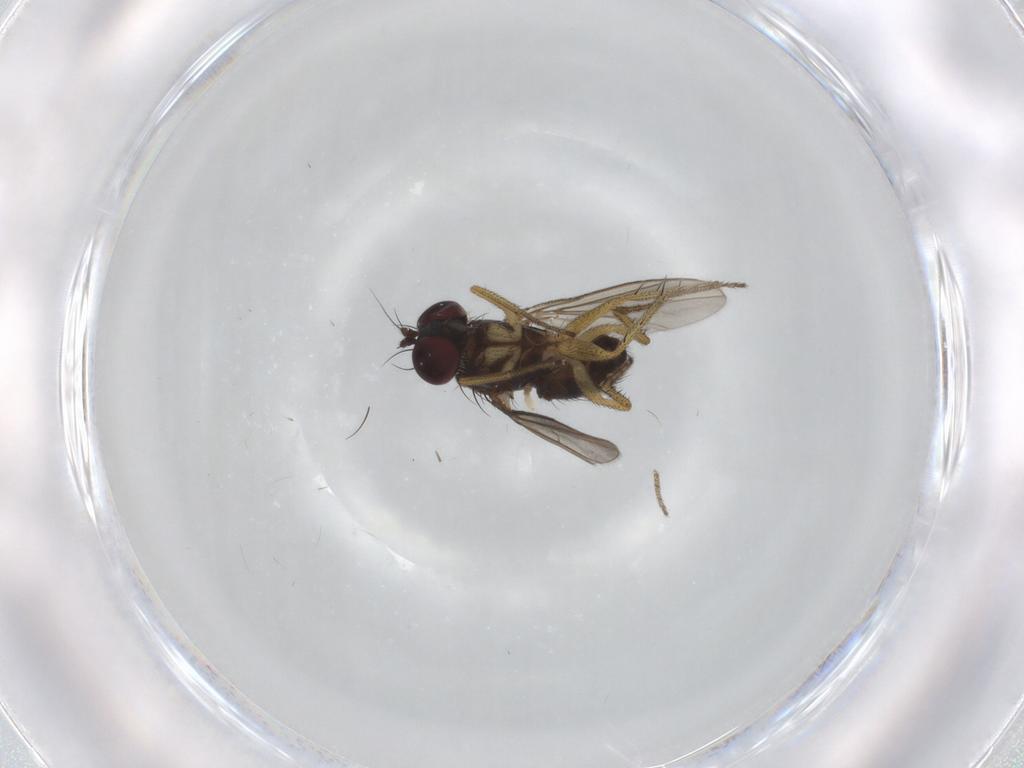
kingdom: Animalia
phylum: Arthropoda
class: Insecta
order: Diptera
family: Dolichopodidae
